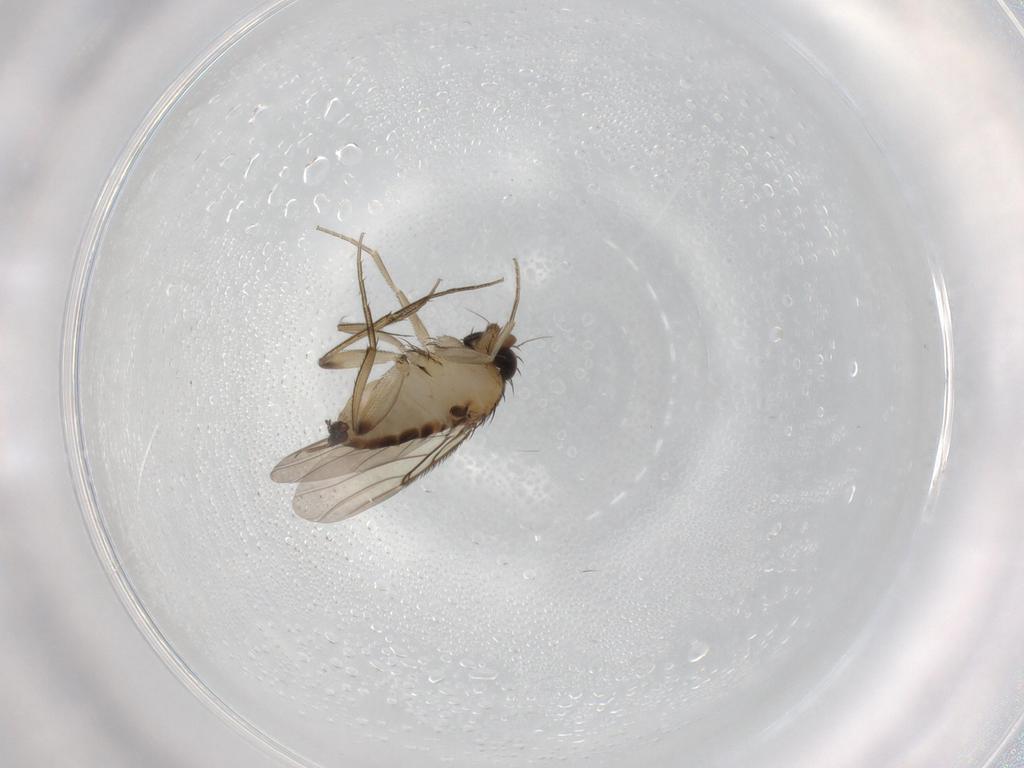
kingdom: Animalia
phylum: Arthropoda
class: Insecta
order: Diptera
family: Phoridae
